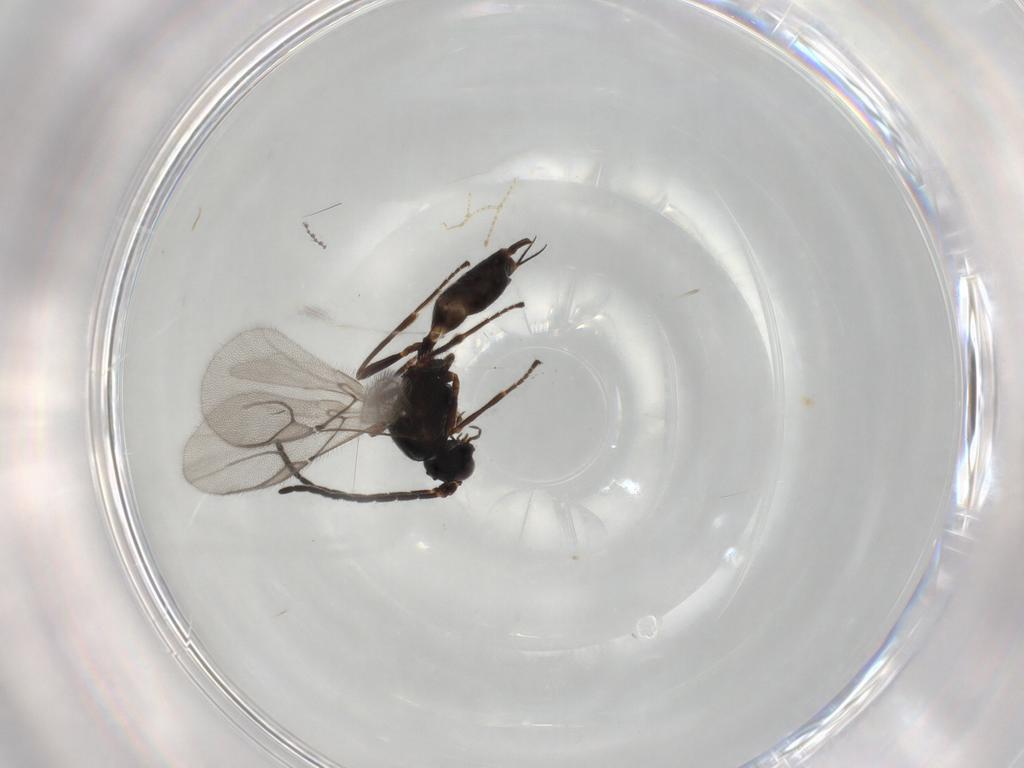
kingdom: Animalia
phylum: Arthropoda
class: Insecta
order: Hymenoptera
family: Braconidae
